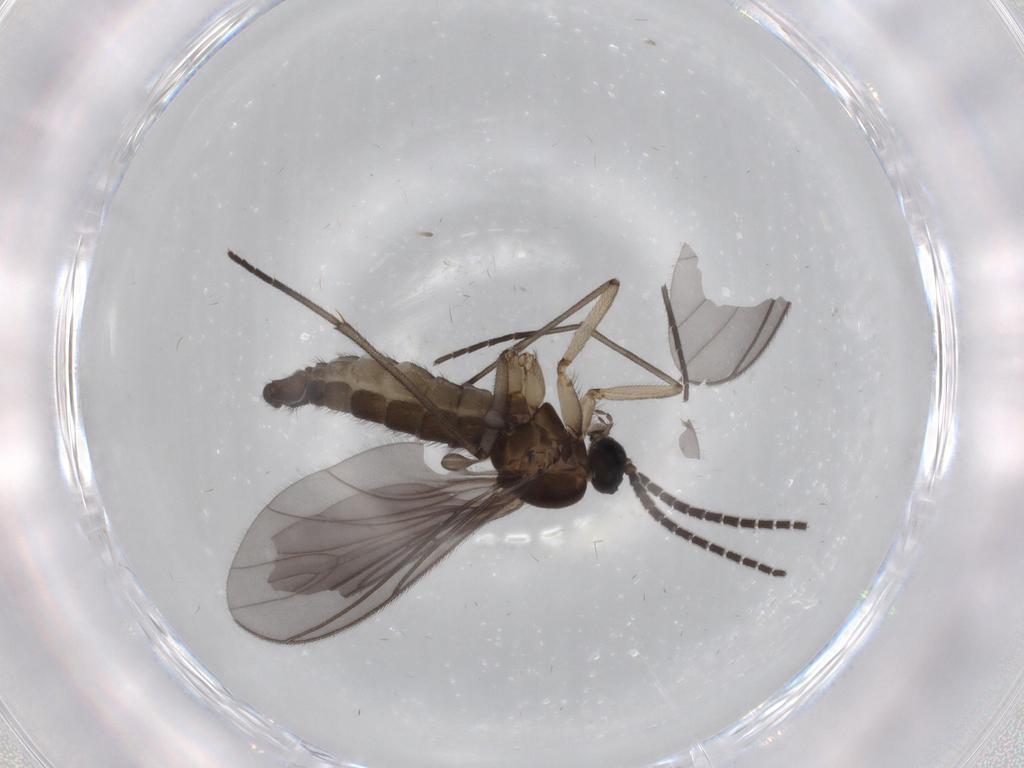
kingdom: Animalia
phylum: Arthropoda
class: Insecta
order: Diptera
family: Sciaridae
